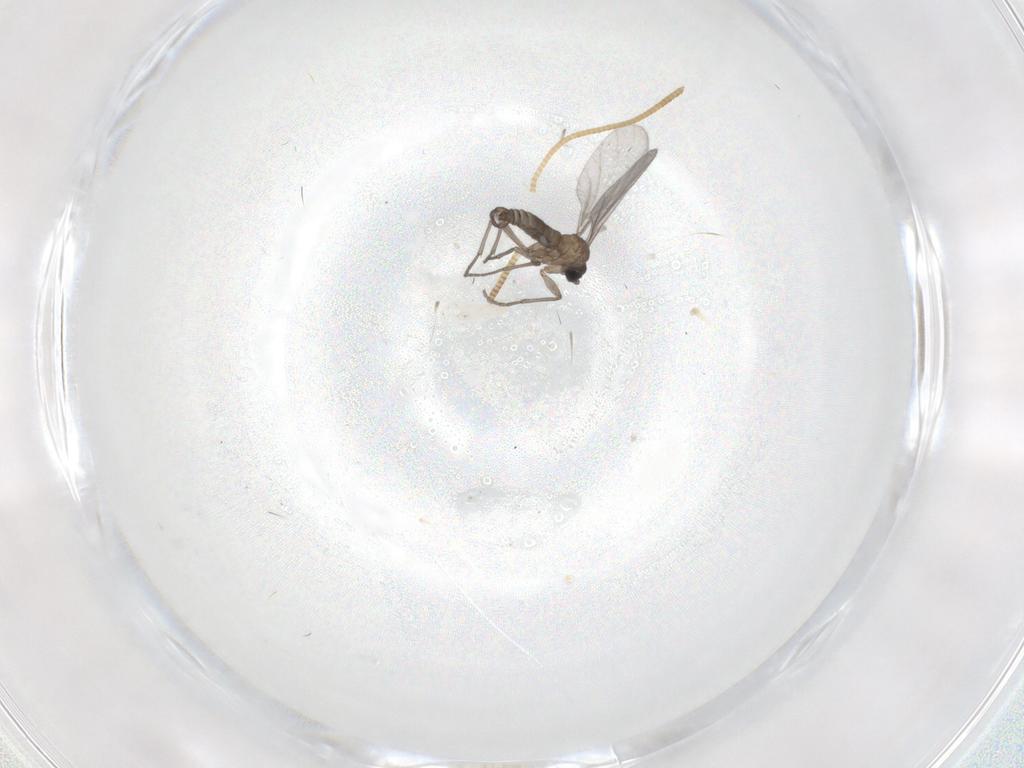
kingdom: Animalia
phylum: Arthropoda
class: Insecta
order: Diptera
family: Sciaridae
